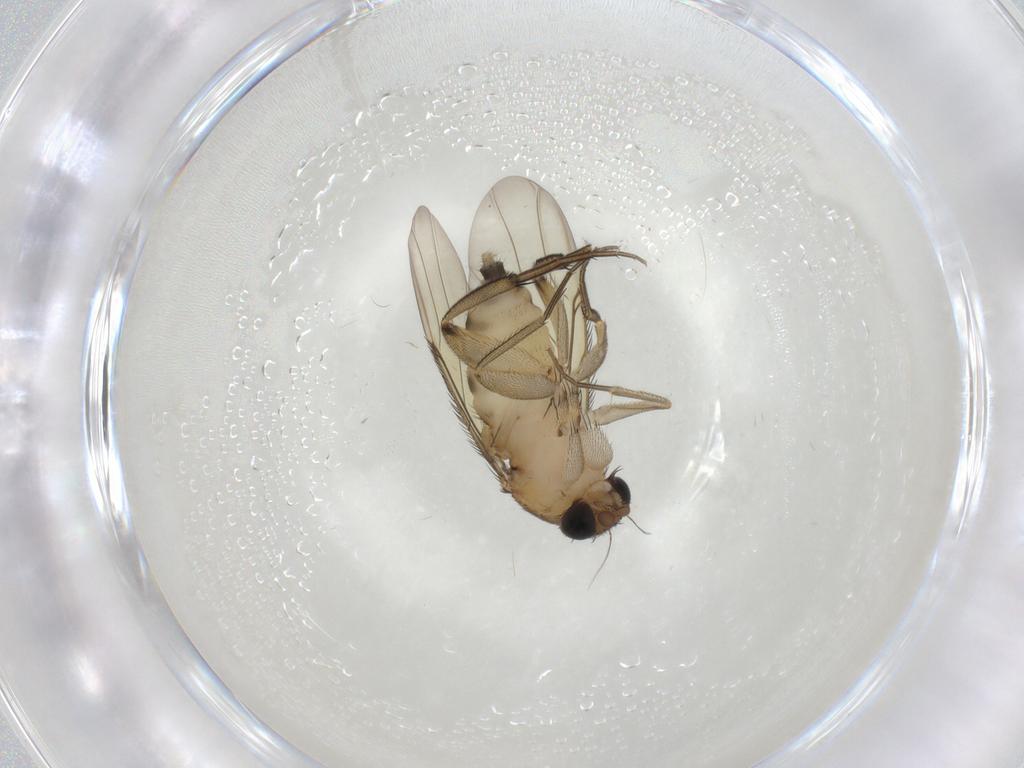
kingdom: Animalia
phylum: Arthropoda
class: Insecta
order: Diptera
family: Phoridae
